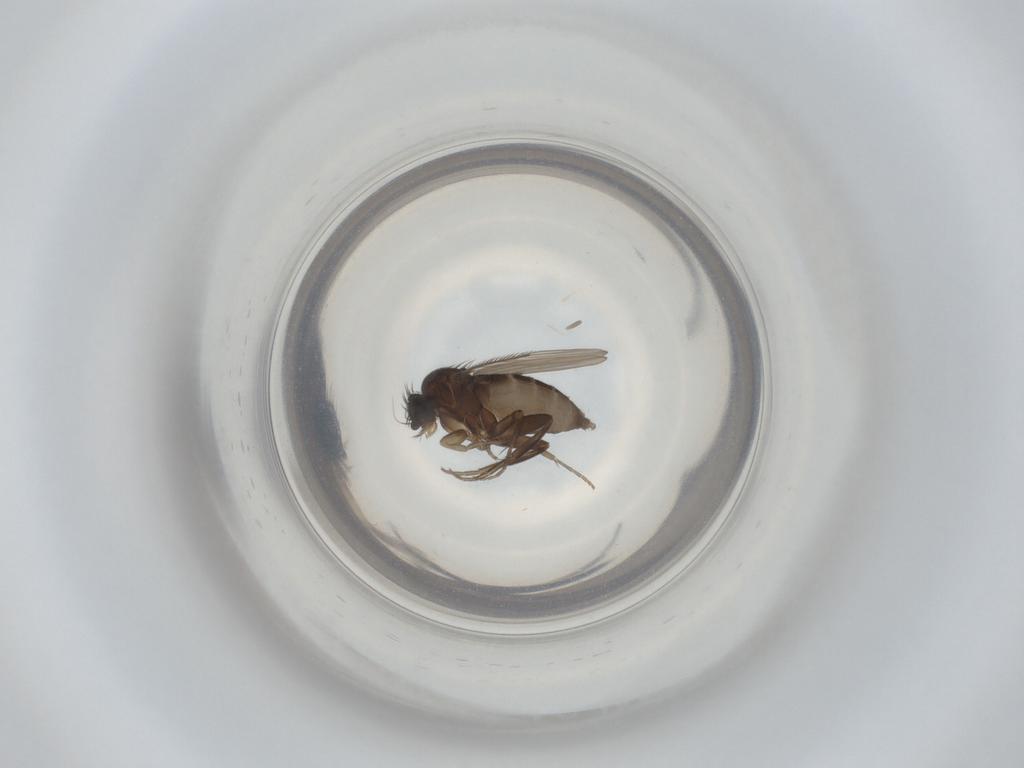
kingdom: Animalia
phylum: Arthropoda
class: Insecta
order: Diptera
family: Phoridae
